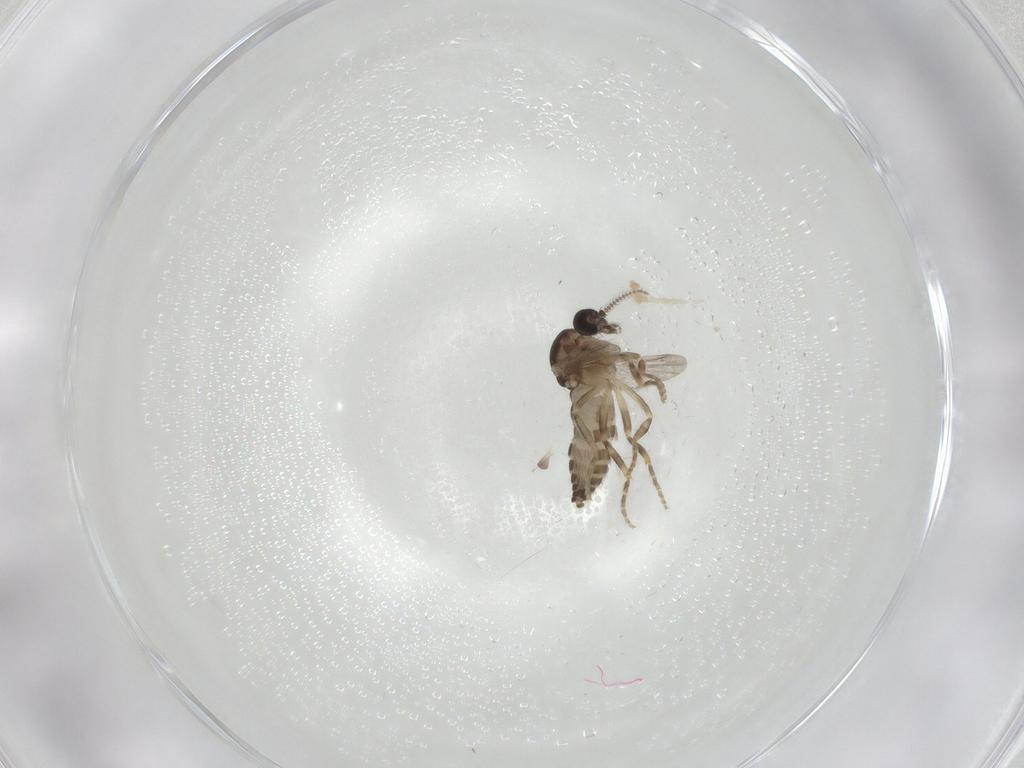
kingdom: Animalia
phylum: Arthropoda
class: Insecta
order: Diptera
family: Ceratopogonidae
